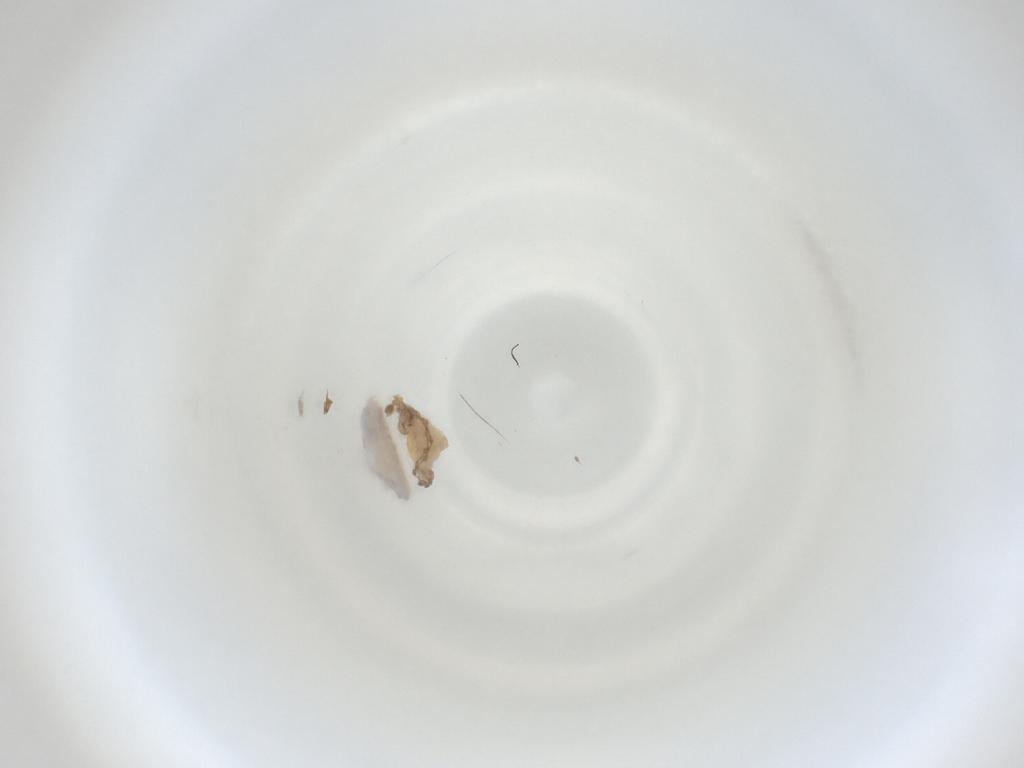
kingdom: Animalia
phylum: Arthropoda
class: Insecta
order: Diptera
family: Cecidomyiidae
